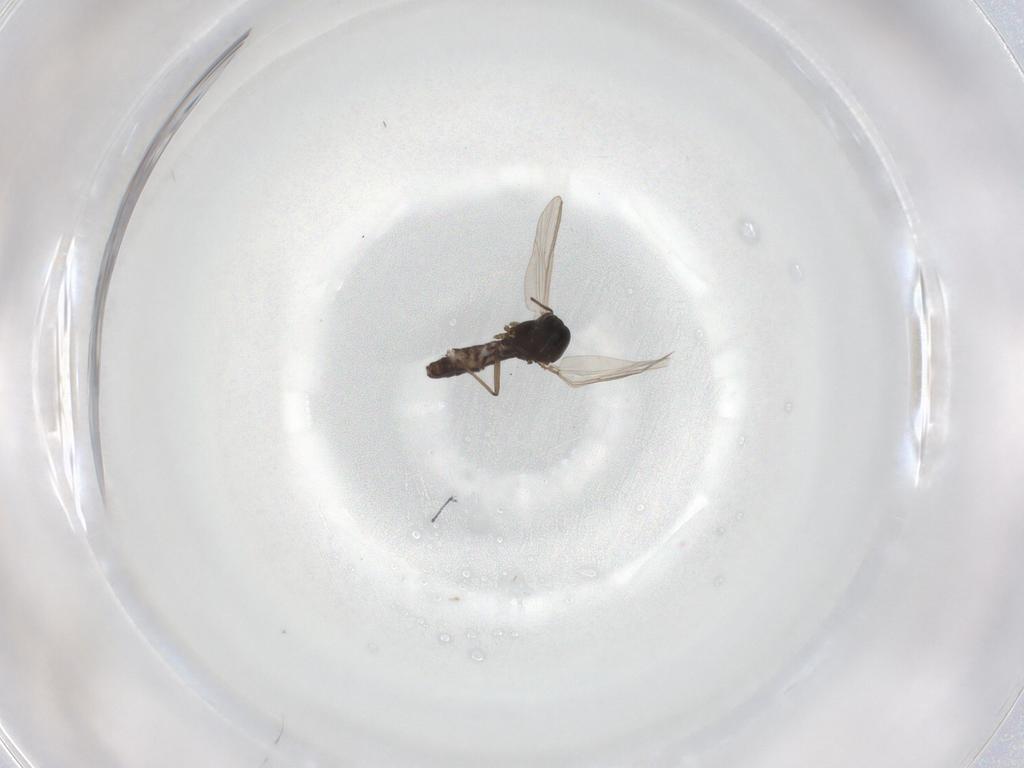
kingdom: Animalia
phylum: Arthropoda
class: Insecta
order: Diptera
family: Chironomidae
